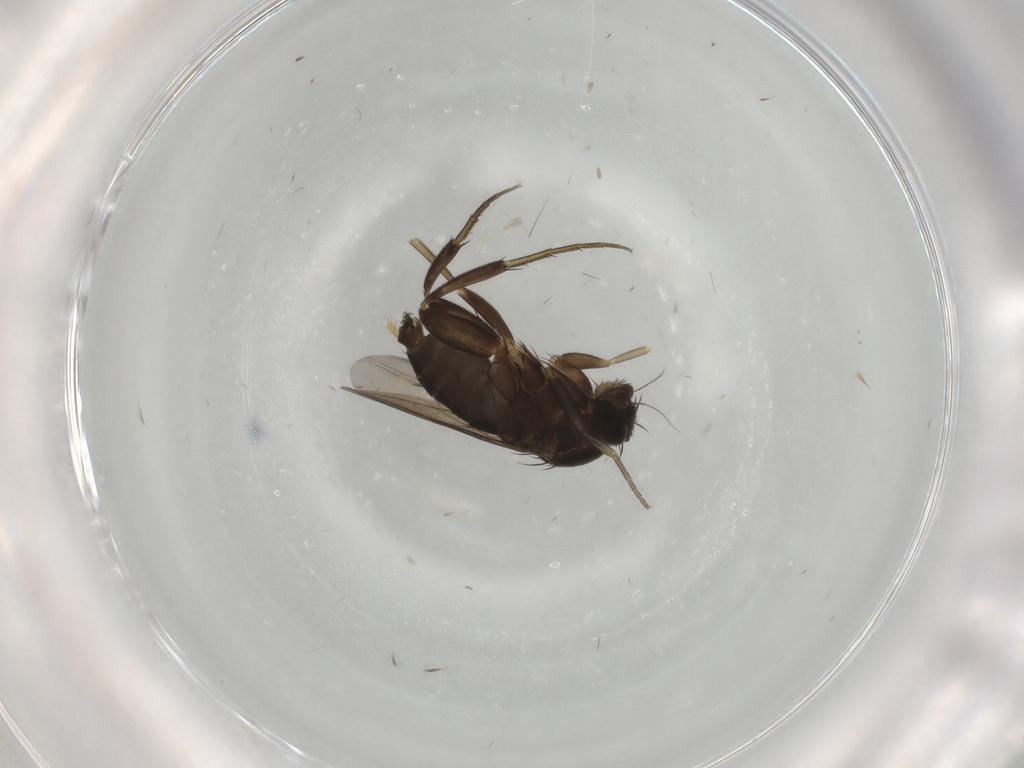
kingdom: Animalia
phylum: Arthropoda
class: Insecta
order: Diptera
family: Phoridae
